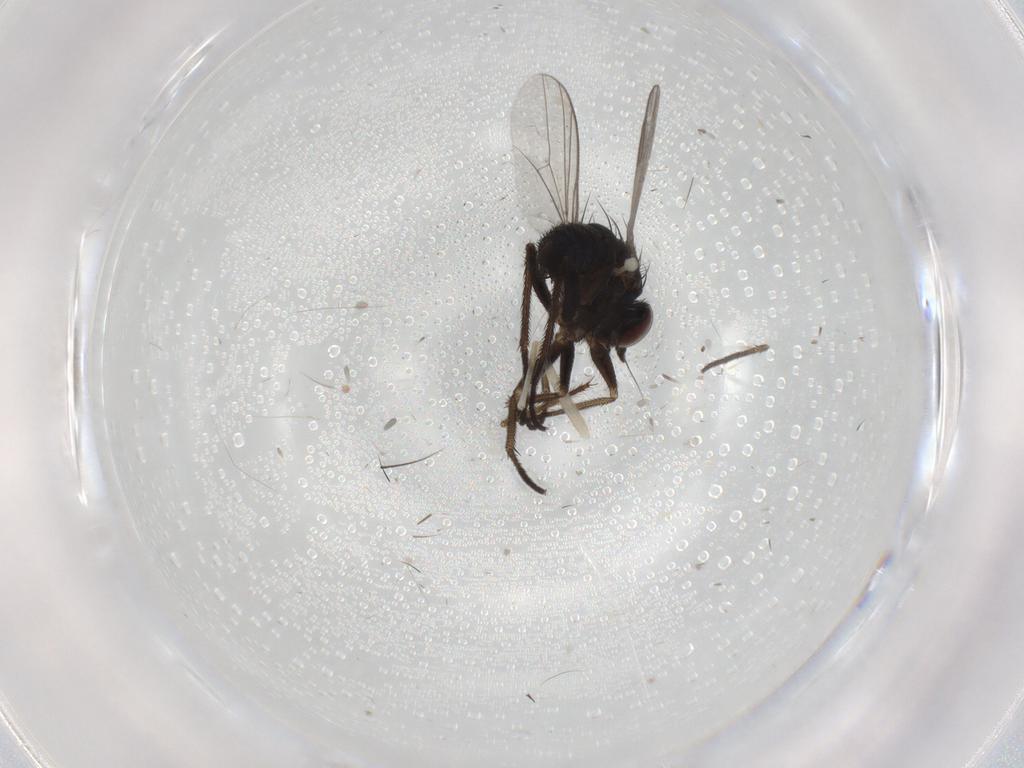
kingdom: Animalia
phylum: Arthropoda
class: Insecta
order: Diptera
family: Dolichopodidae
